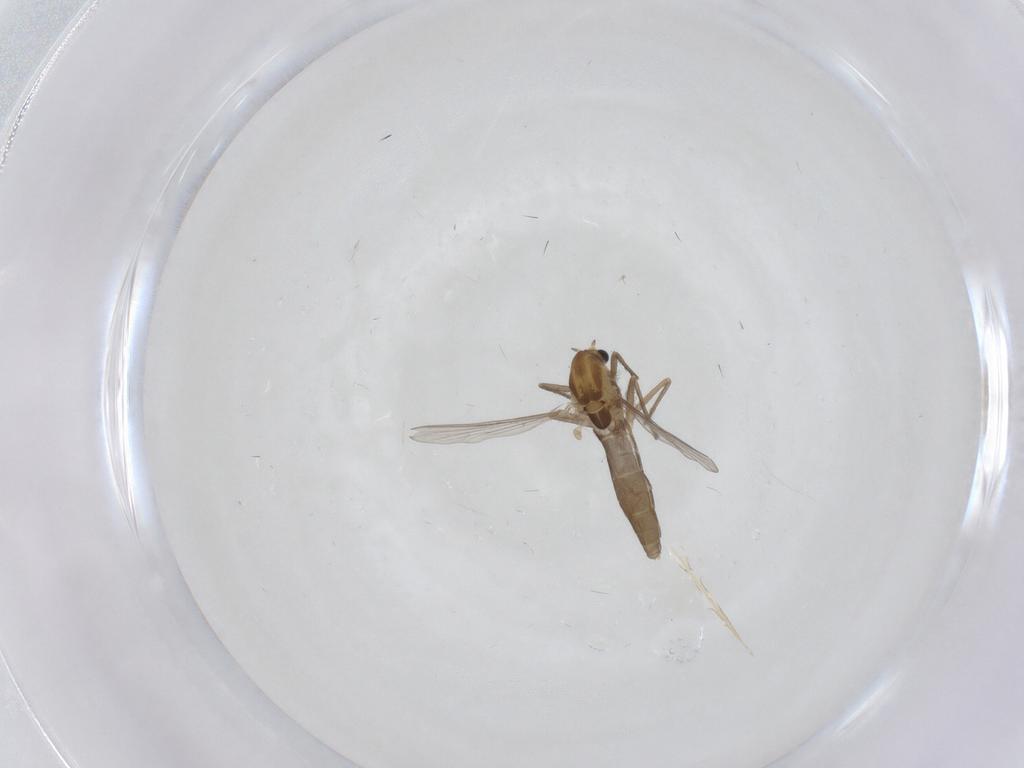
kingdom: Animalia
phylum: Arthropoda
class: Insecta
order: Diptera
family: Chironomidae
